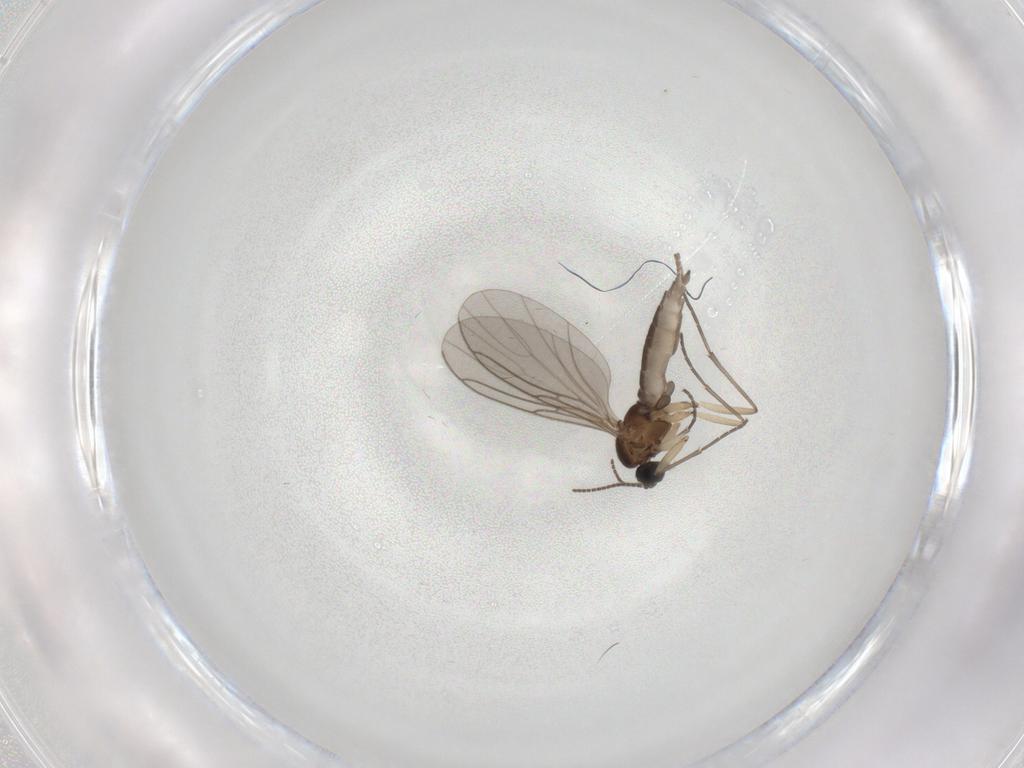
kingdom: Animalia
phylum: Arthropoda
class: Insecta
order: Diptera
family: Sciaridae
